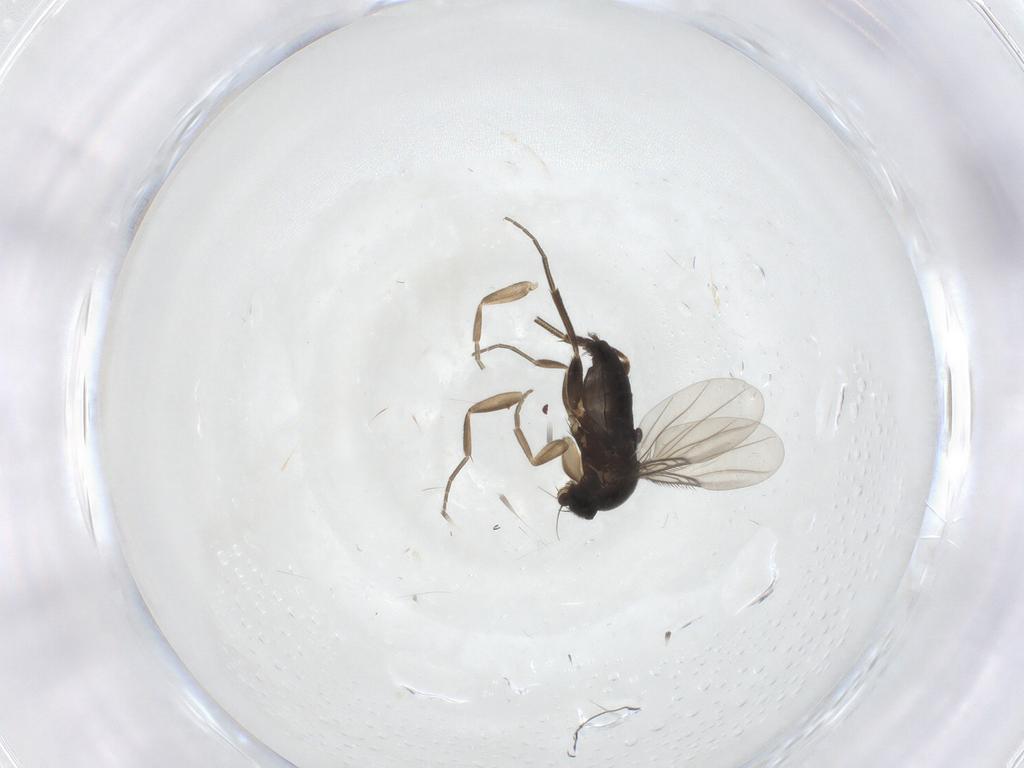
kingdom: Animalia
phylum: Arthropoda
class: Insecta
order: Diptera
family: Phoridae
